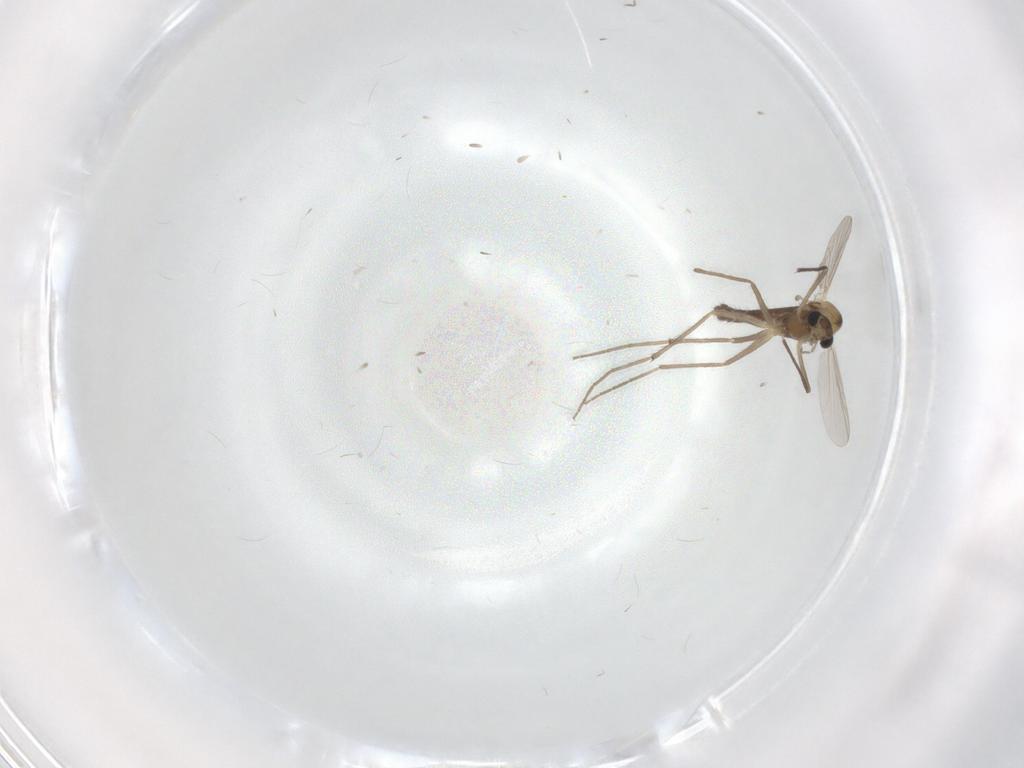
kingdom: Animalia
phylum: Arthropoda
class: Insecta
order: Diptera
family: Chironomidae
